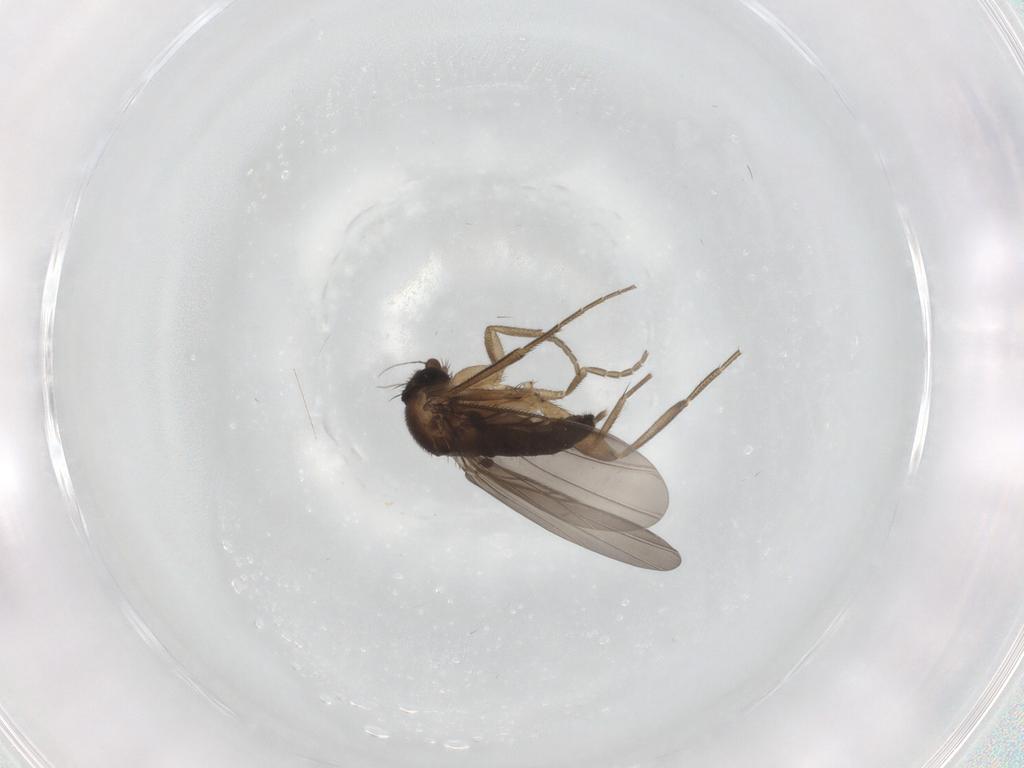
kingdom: Animalia
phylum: Arthropoda
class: Insecta
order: Diptera
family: Phoridae
